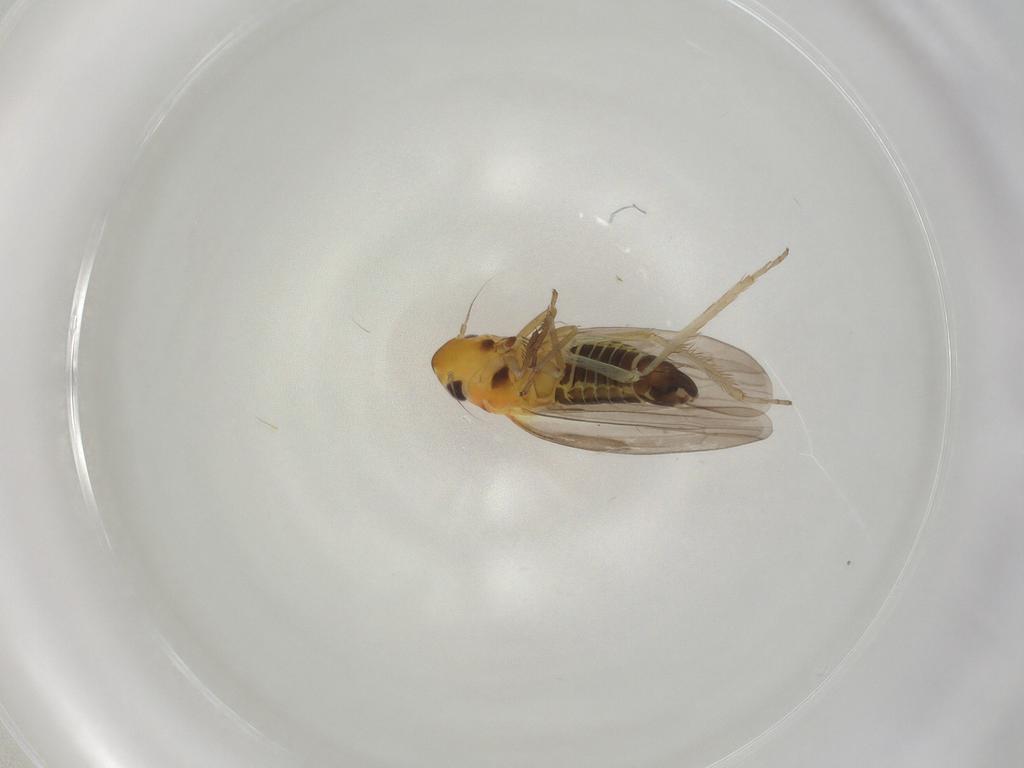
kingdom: Animalia
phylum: Arthropoda
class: Insecta
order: Hemiptera
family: Cicadellidae
